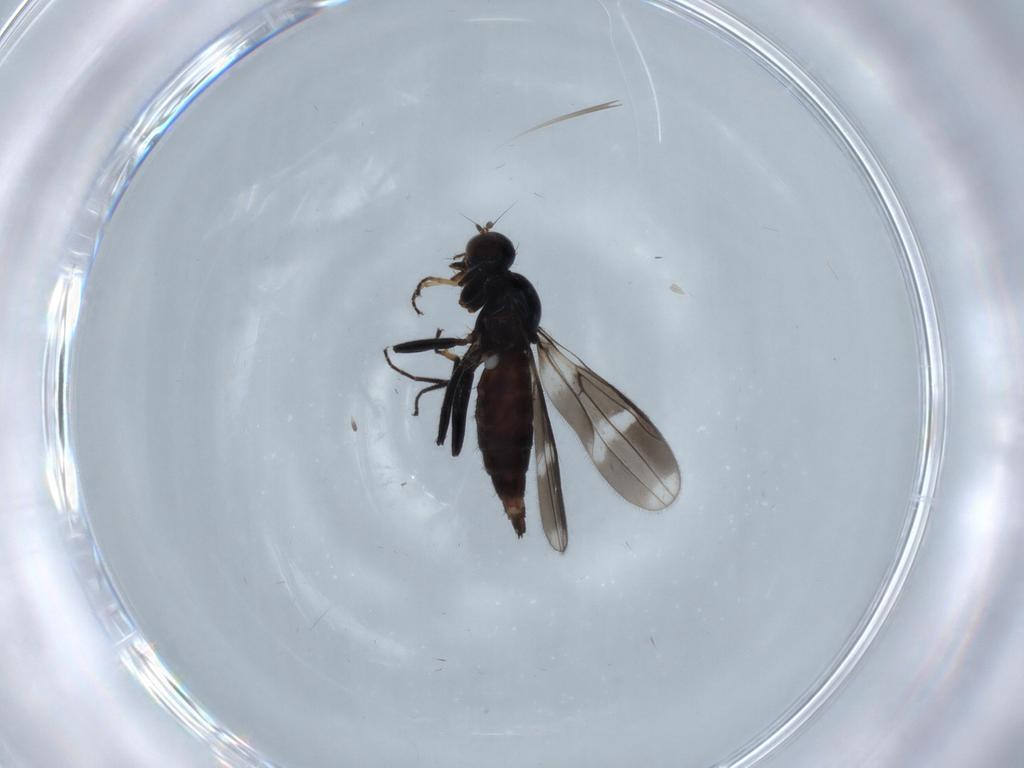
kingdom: Animalia
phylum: Arthropoda
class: Insecta
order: Diptera
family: Hybotidae
